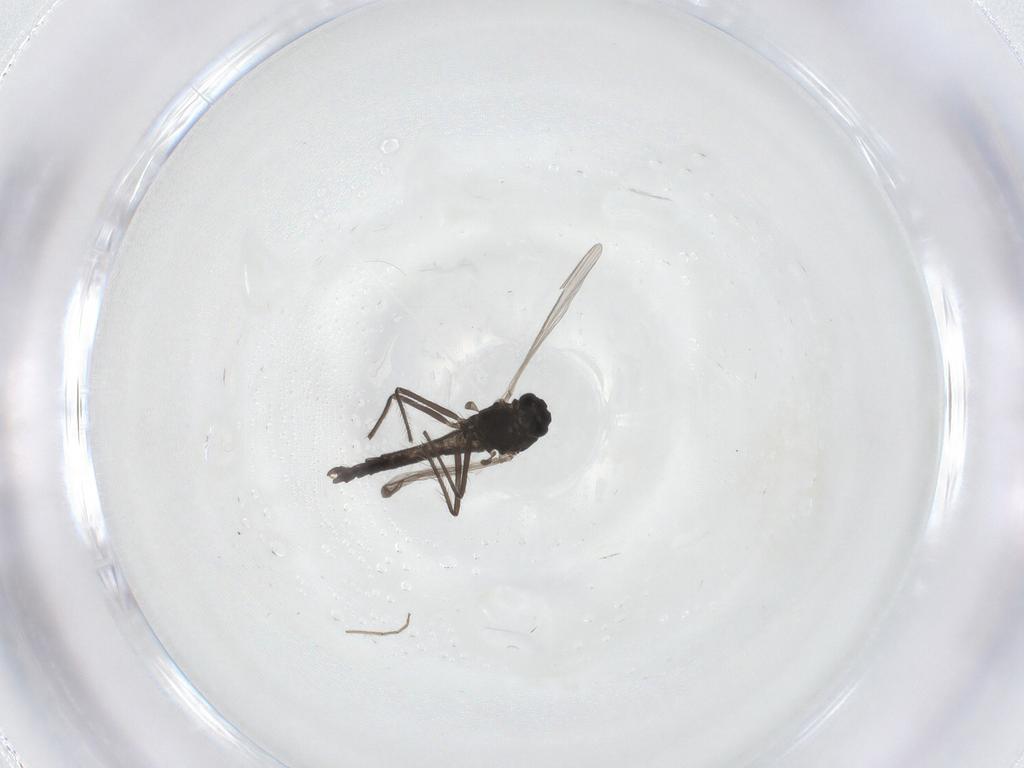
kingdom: Animalia
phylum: Arthropoda
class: Insecta
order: Diptera
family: Chironomidae
